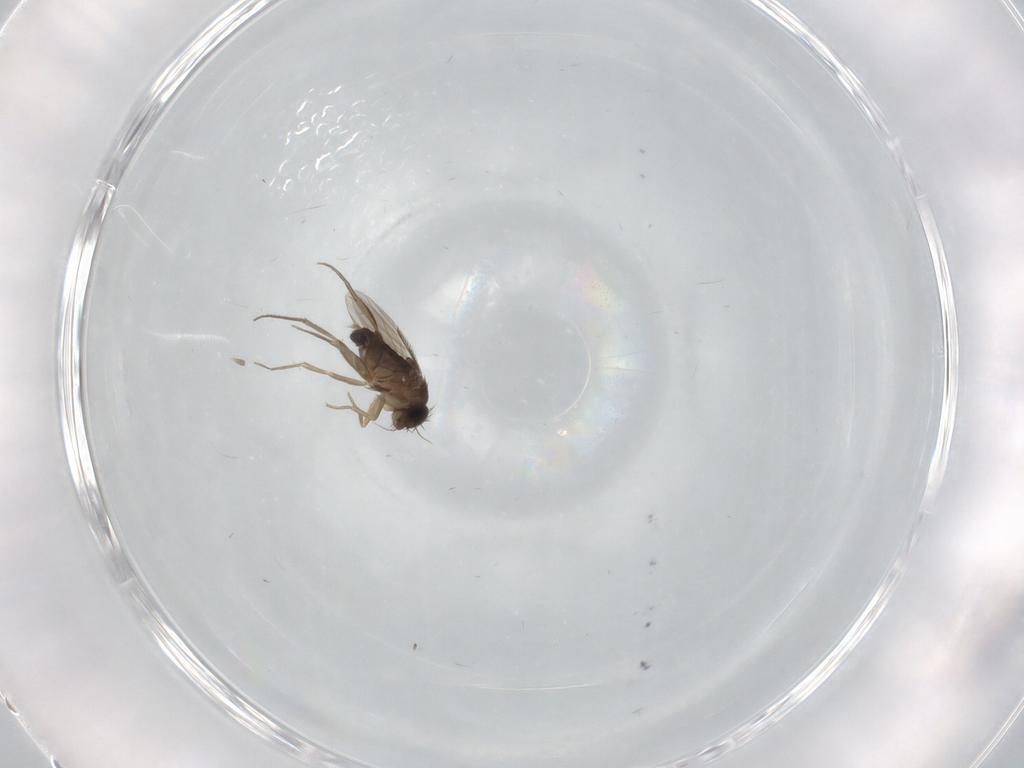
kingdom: Animalia
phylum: Arthropoda
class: Insecta
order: Diptera
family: Phoridae
